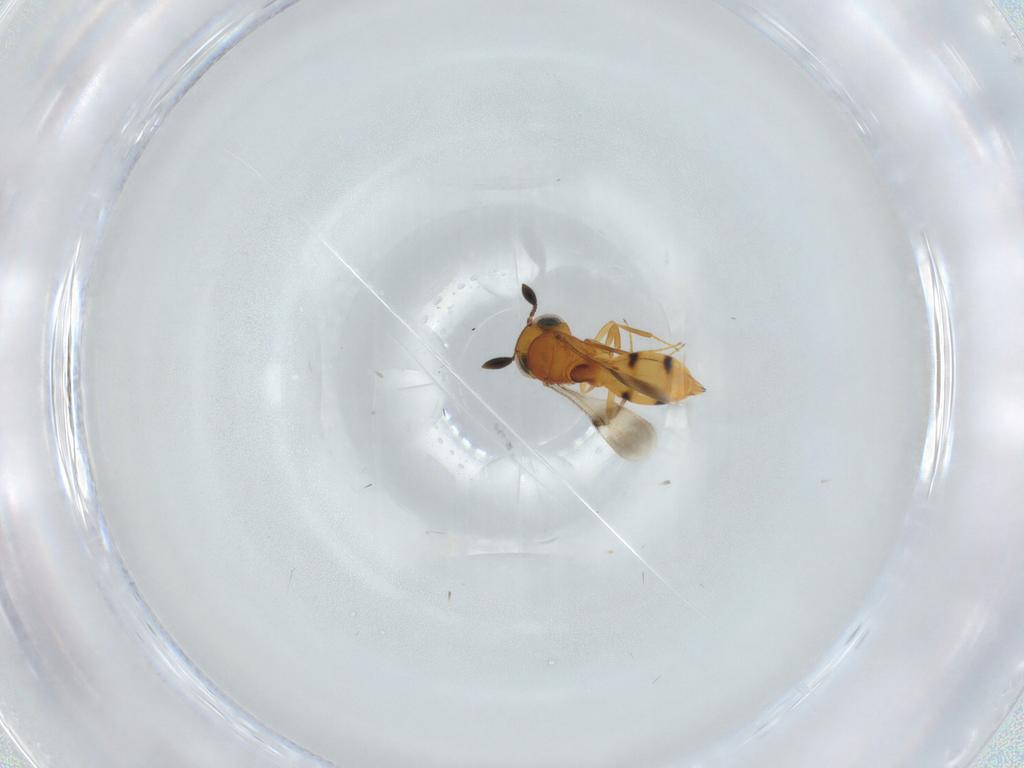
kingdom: Animalia
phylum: Arthropoda
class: Insecta
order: Hymenoptera
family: Scelionidae
